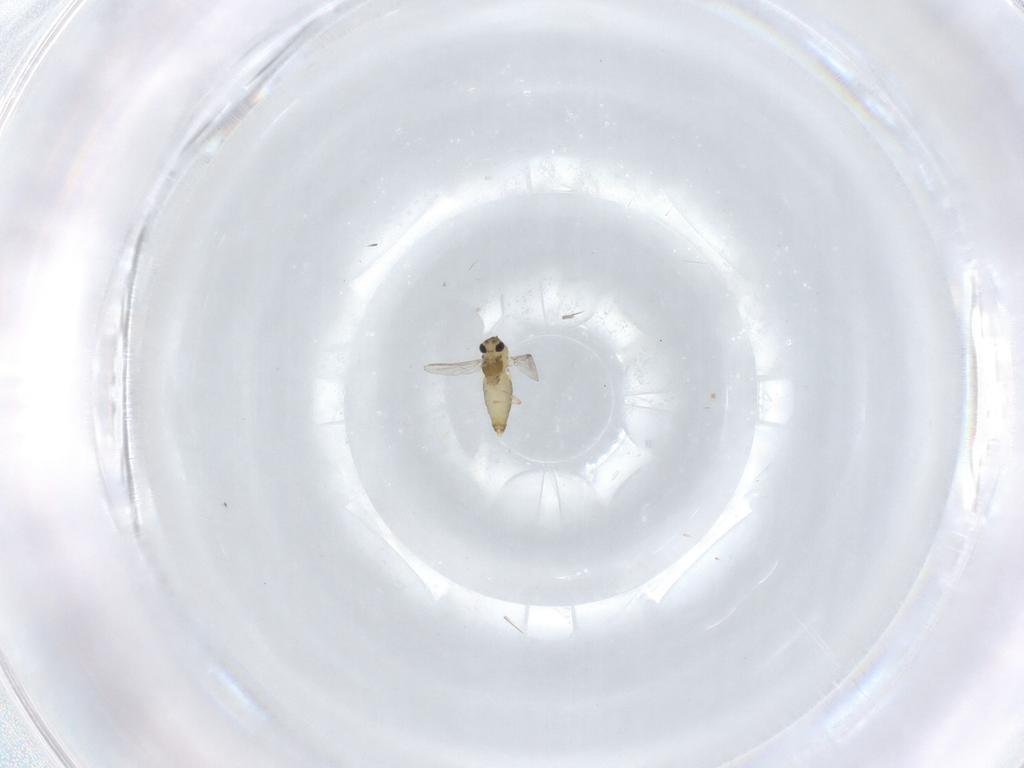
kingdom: Animalia
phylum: Arthropoda
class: Insecta
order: Diptera
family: Chironomidae
